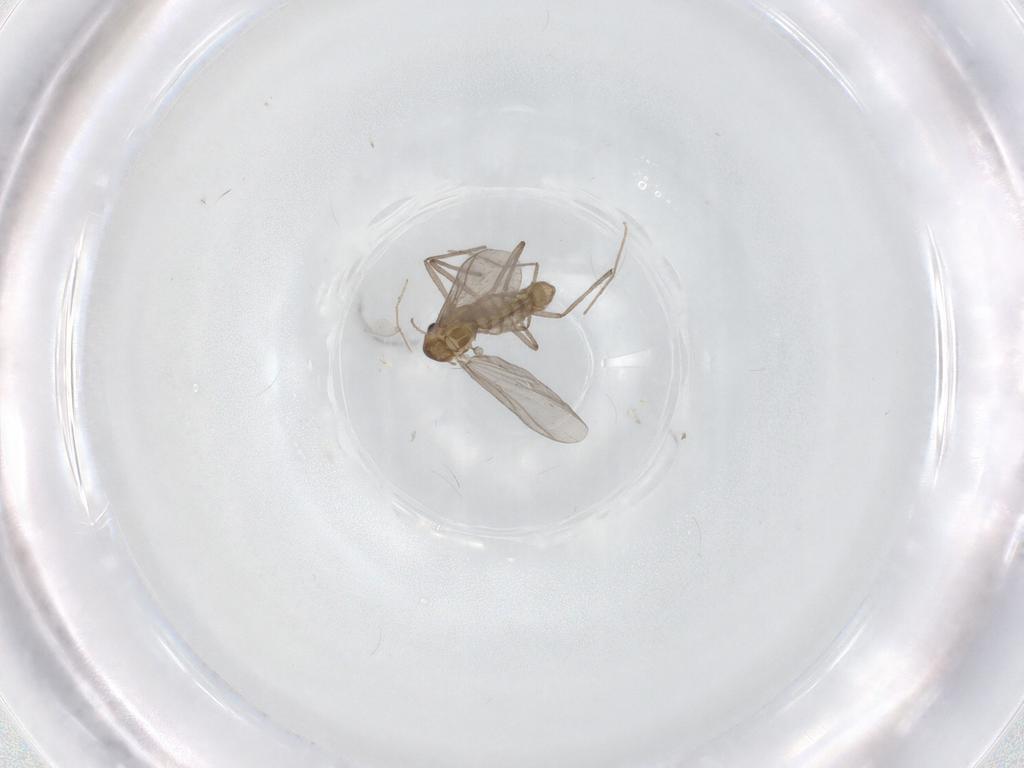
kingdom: Animalia
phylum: Arthropoda
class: Insecta
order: Diptera
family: Chironomidae
